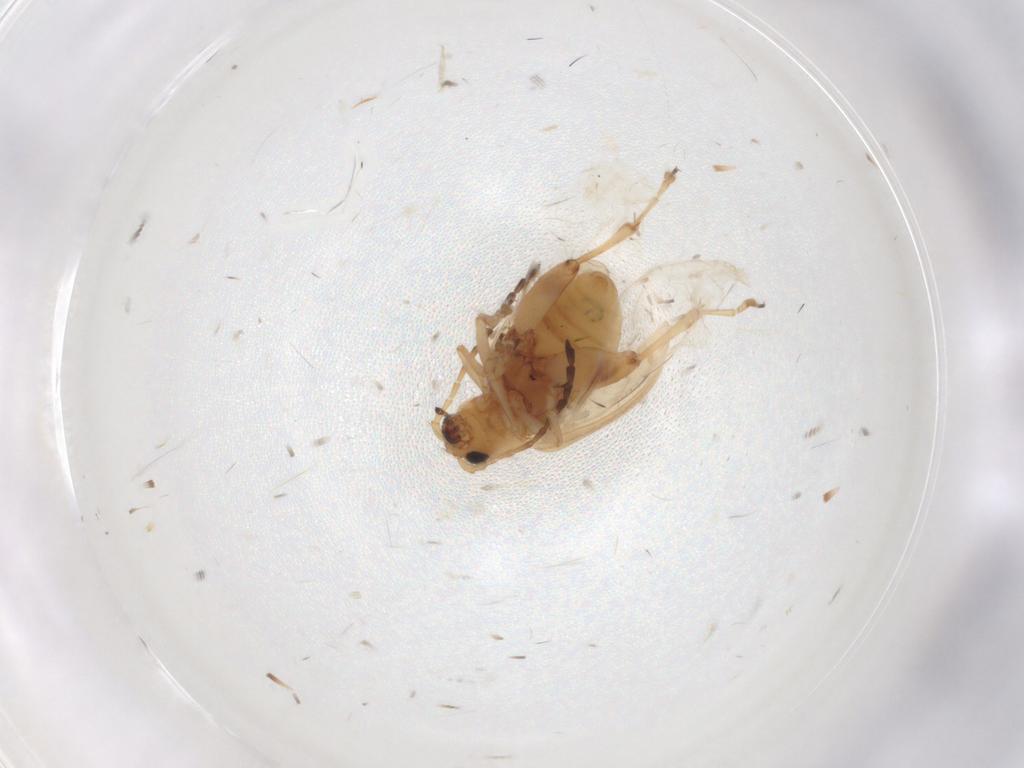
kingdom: Animalia
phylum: Arthropoda
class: Insecta
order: Coleoptera
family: Chrysomelidae
